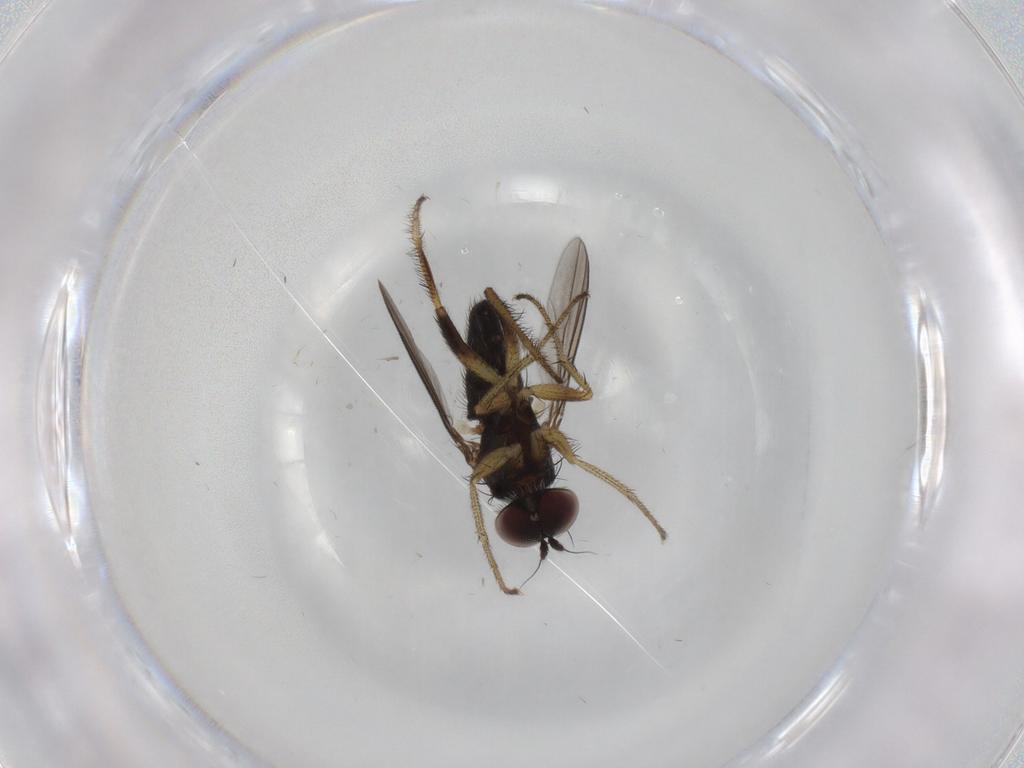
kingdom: Animalia
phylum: Arthropoda
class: Insecta
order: Diptera
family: Dolichopodidae
